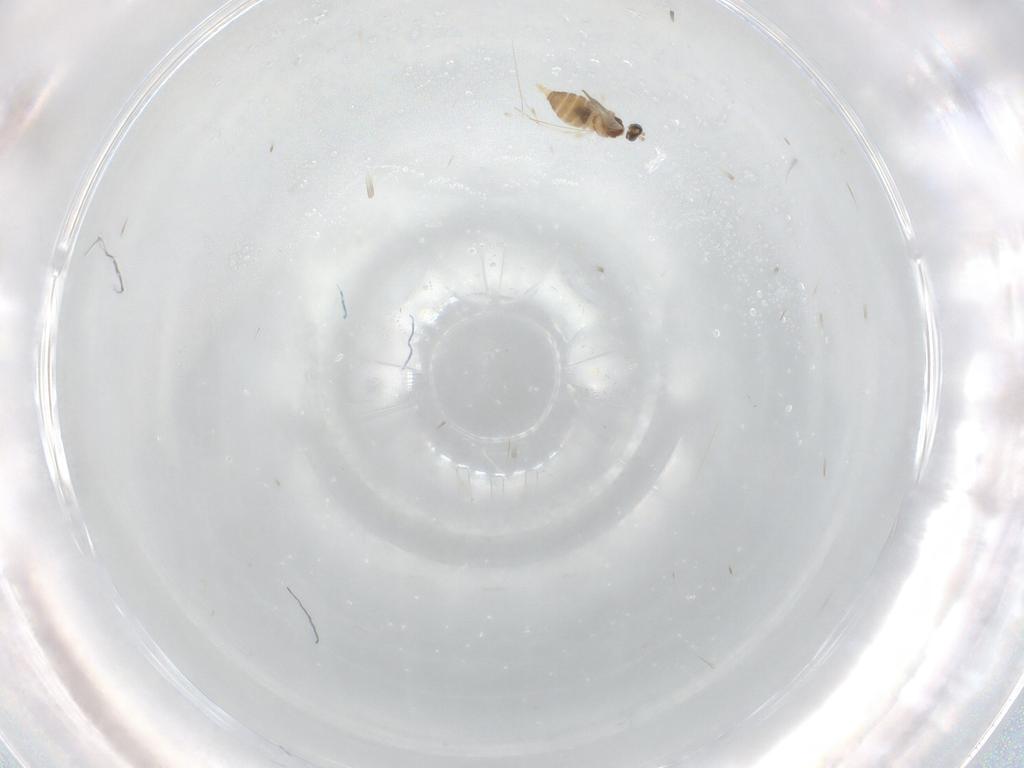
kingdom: Animalia
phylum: Arthropoda
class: Insecta
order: Diptera
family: Cecidomyiidae
